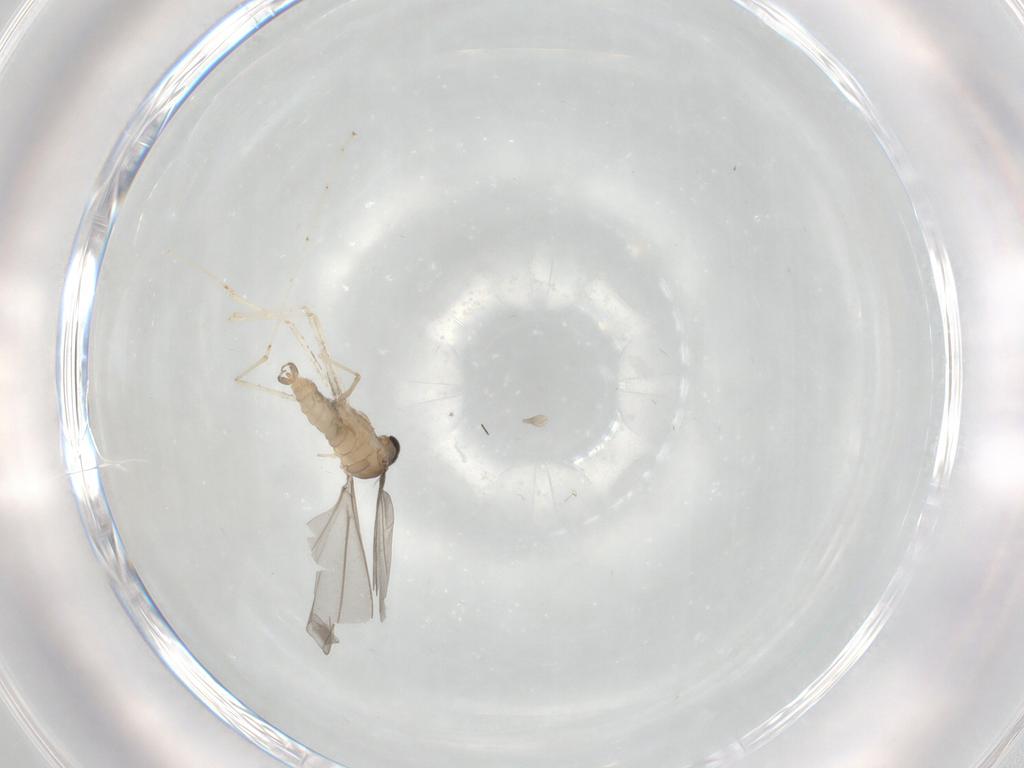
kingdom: Animalia
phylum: Arthropoda
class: Insecta
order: Diptera
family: Cecidomyiidae
